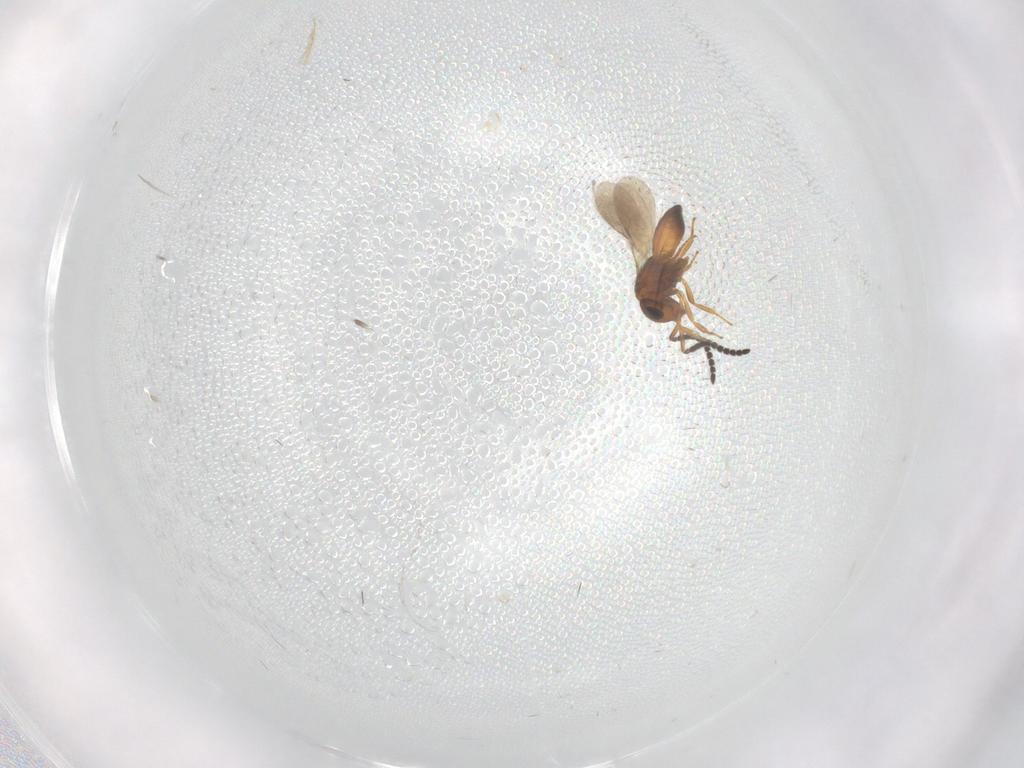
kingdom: Animalia
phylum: Arthropoda
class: Insecta
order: Hymenoptera
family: Scelionidae
